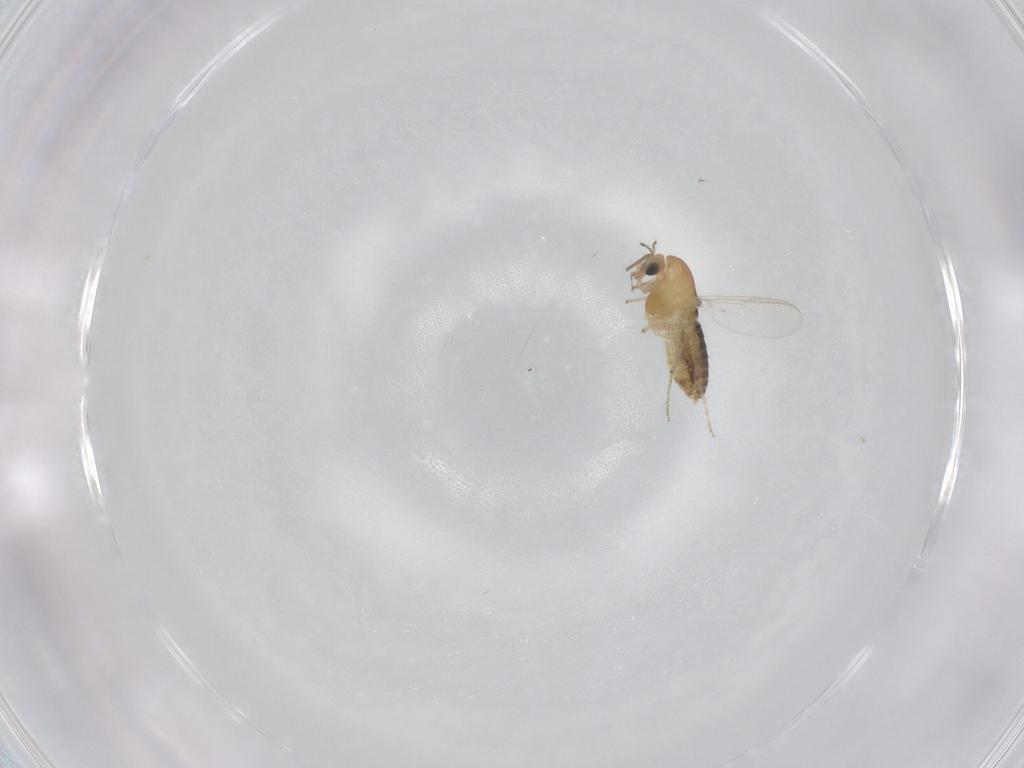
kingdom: Animalia
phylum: Arthropoda
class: Insecta
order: Diptera
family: Chironomidae
